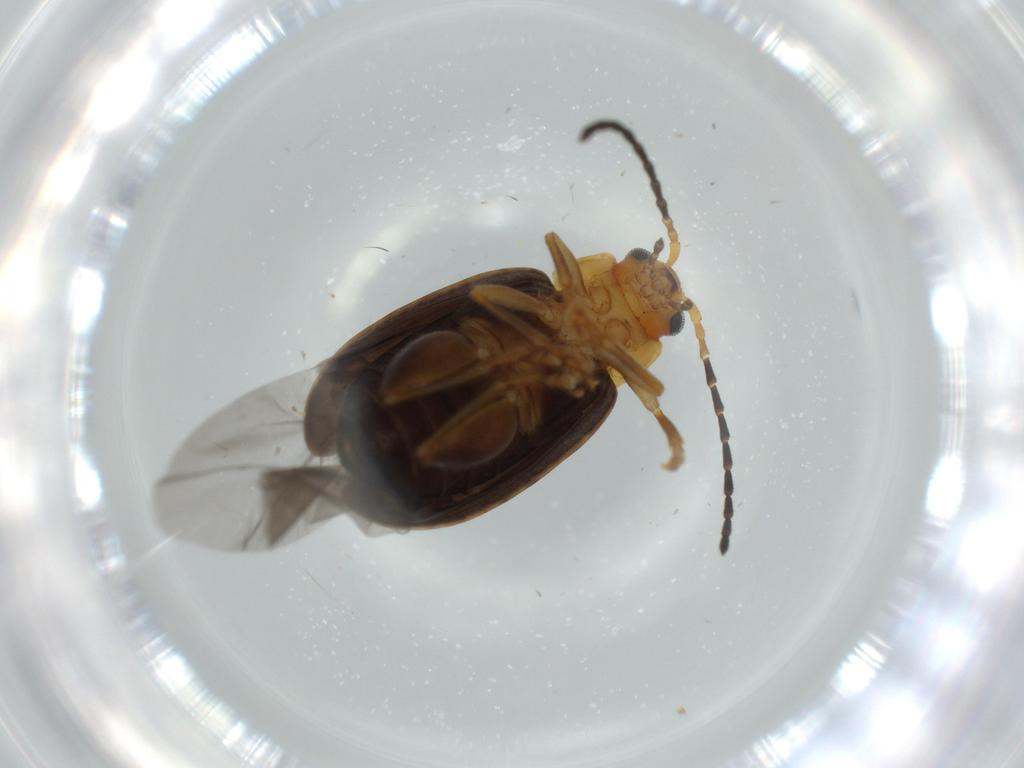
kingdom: Animalia
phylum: Arthropoda
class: Insecta
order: Coleoptera
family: Chrysomelidae
